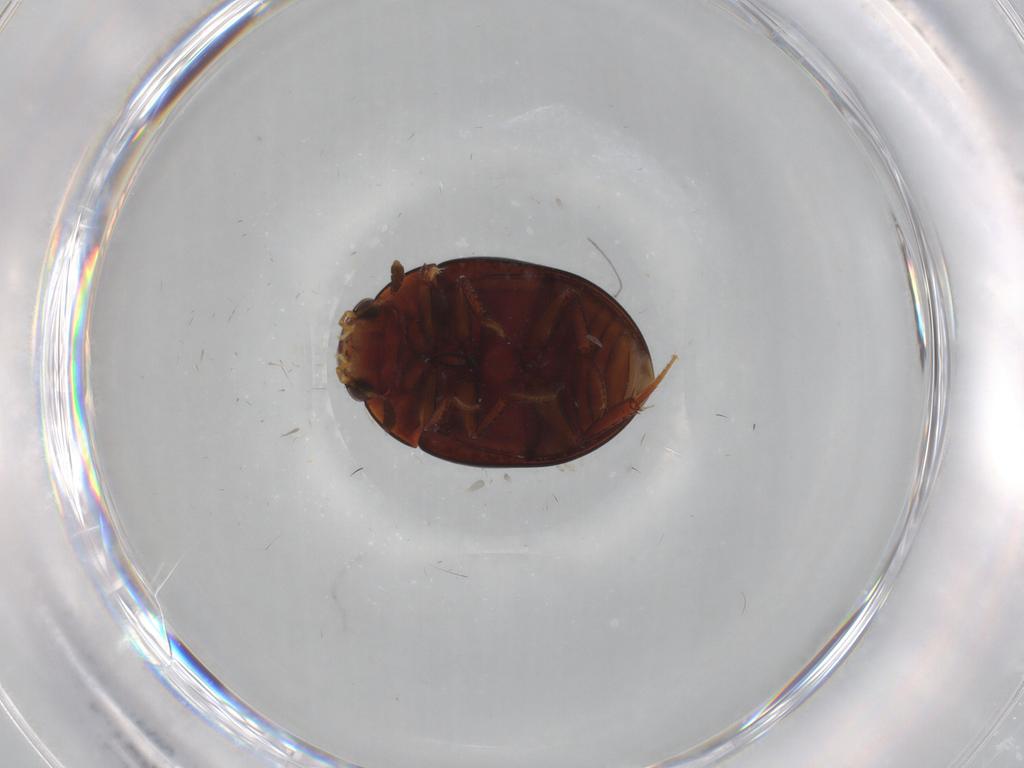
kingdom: Animalia
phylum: Arthropoda
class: Insecta
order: Coleoptera
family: Hydrophilidae
